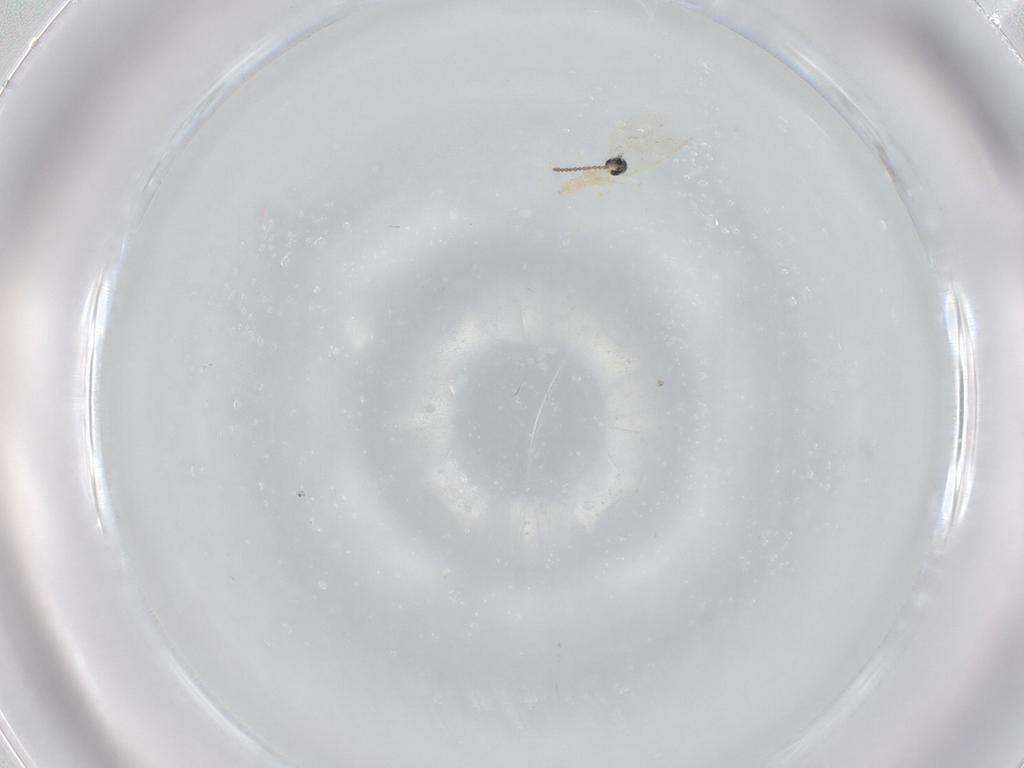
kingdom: Animalia
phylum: Arthropoda
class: Insecta
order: Diptera
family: Cecidomyiidae
